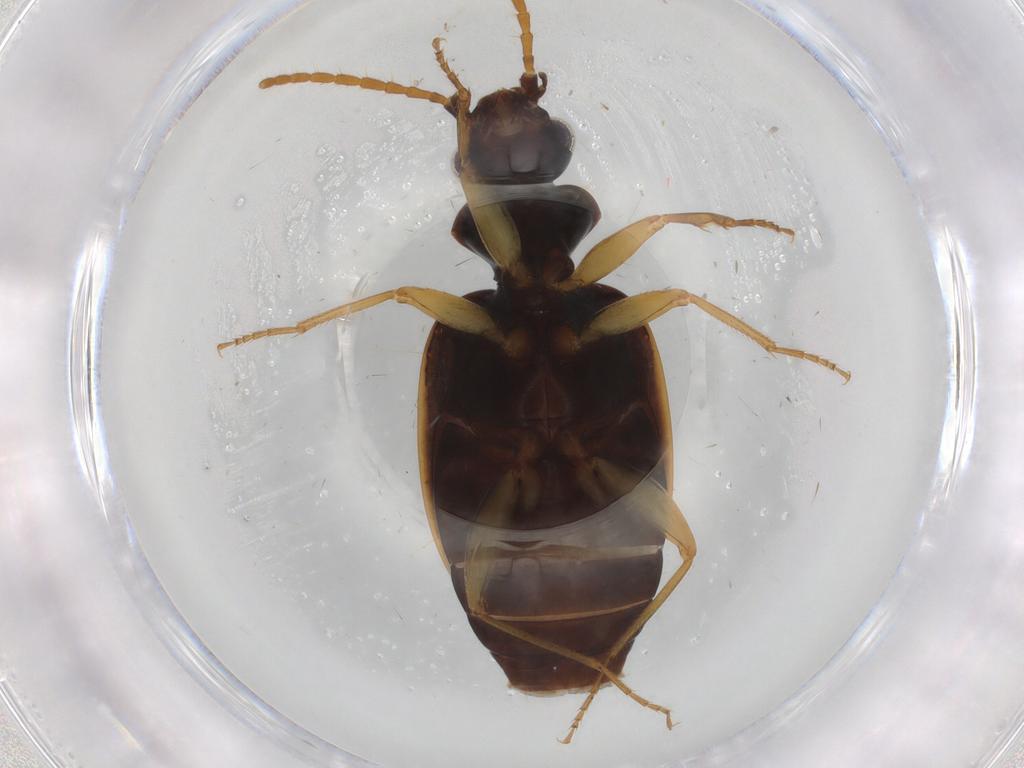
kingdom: Animalia
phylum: Arthropoda
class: Insecta
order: Coleoptera
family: Carabidae
